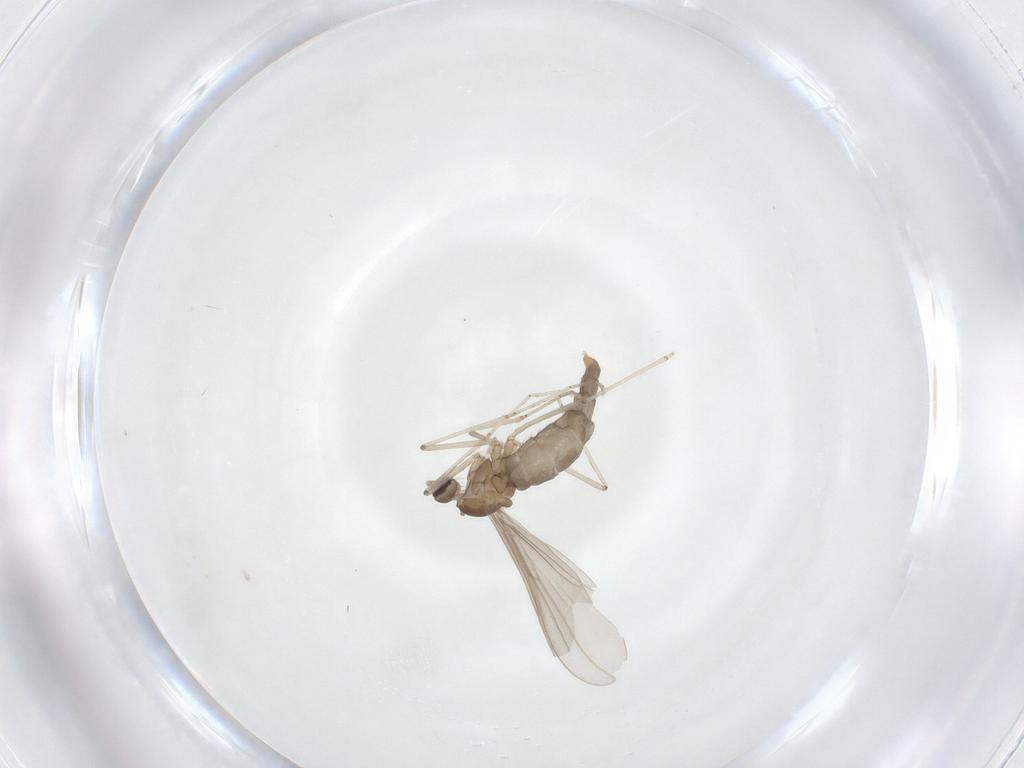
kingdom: Animalia
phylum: Arthropoda
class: Insecta
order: Diptera
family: Cecidomyiidae
